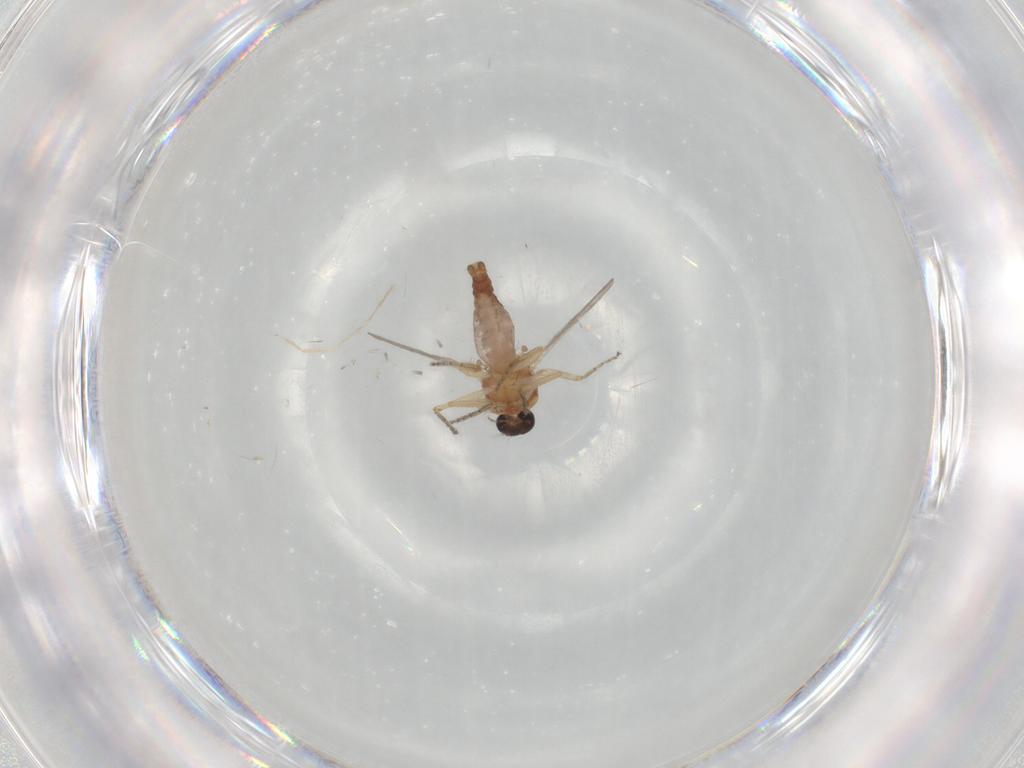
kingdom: Animalia
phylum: Arthropoda
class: Insecta
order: Diptera
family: Ceratopogonidae
